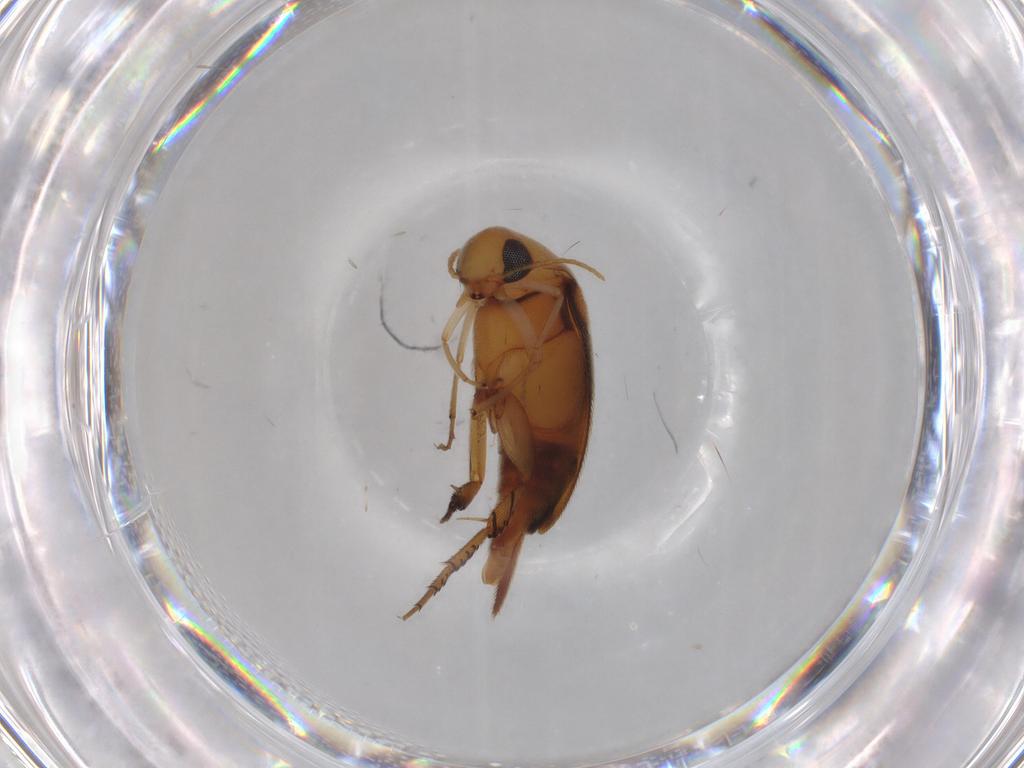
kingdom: Animalia
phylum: Arthropoda
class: Insecta
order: Coleoptera
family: Mordellidae
